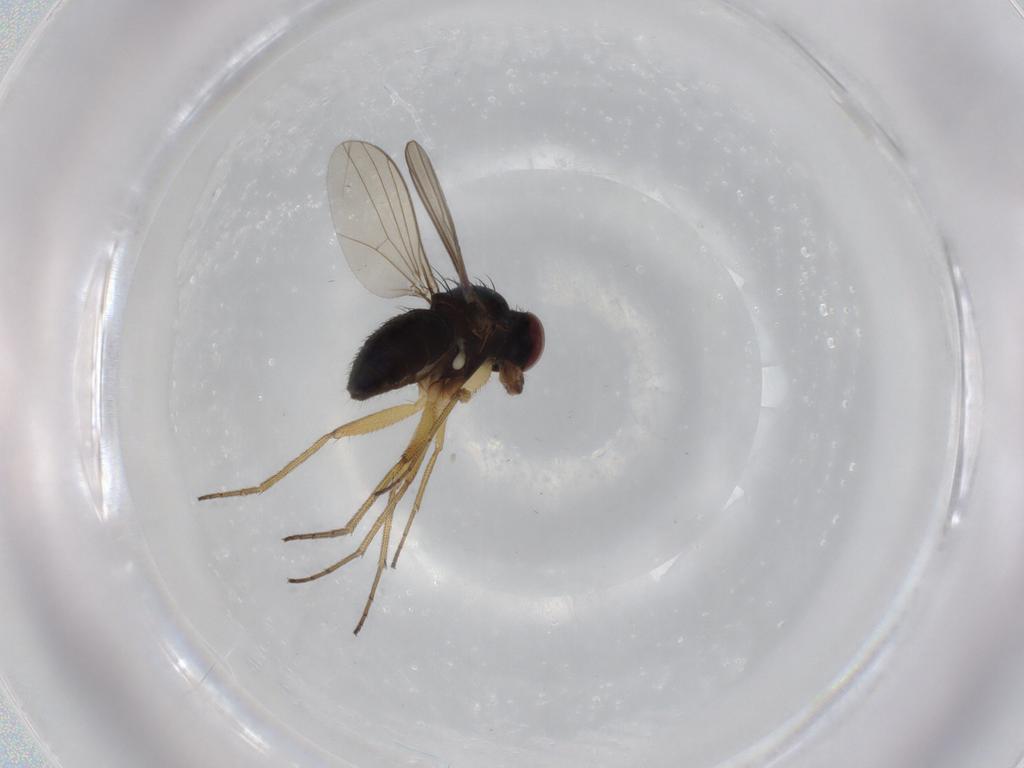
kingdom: Animalia
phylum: Arthropoda
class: Insecta
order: Diptera
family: Dolichopodidae
